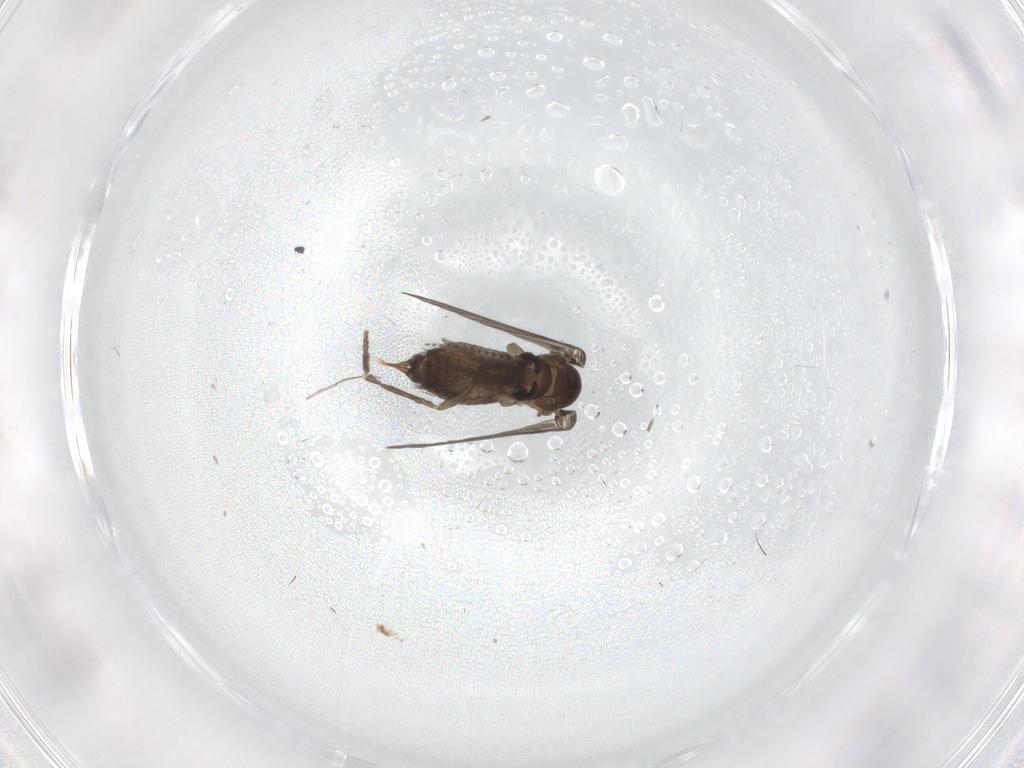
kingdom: Animalia
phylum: Arthropoda
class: Insecta
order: Diptera
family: Psychodidae
